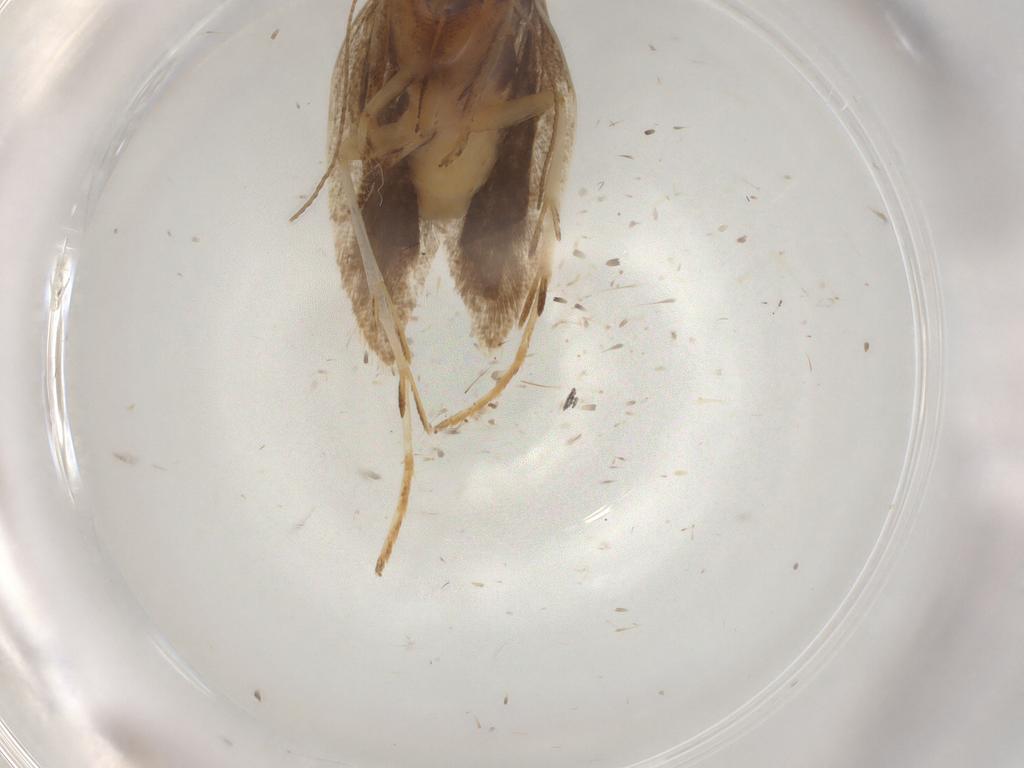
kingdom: Animalia
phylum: Arthropoda
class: Insecta
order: Lepidoptera
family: Gelechiidae
